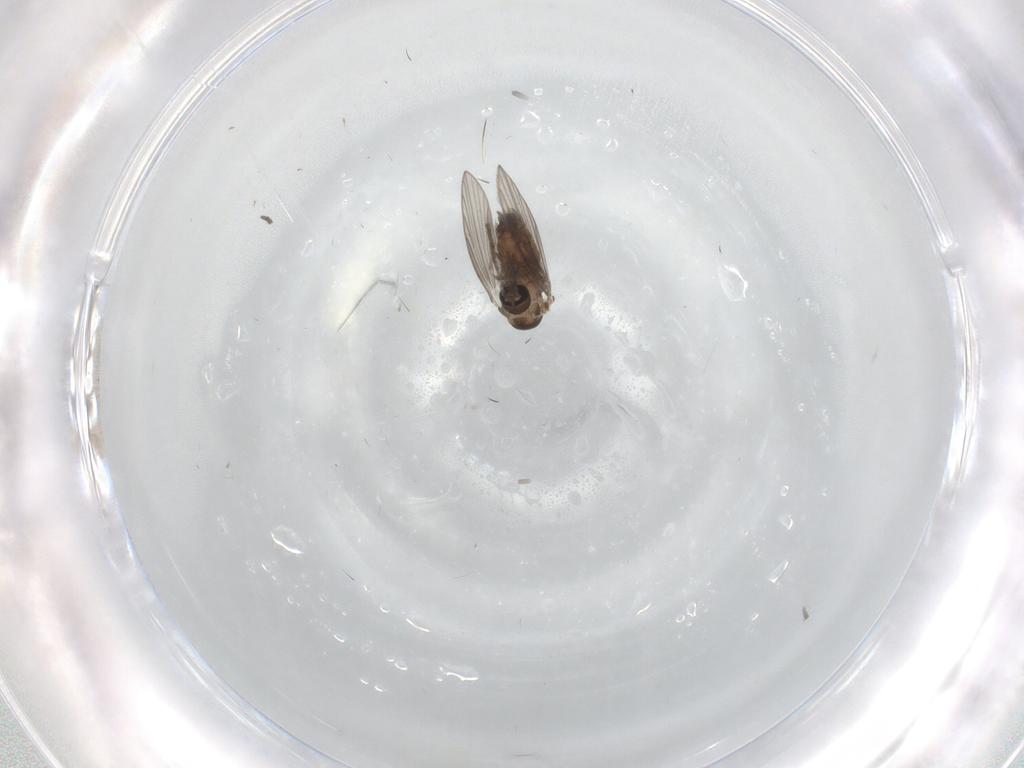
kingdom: Animalia
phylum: Arthropoda
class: Insecta
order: Diptera
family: Psychodidae
